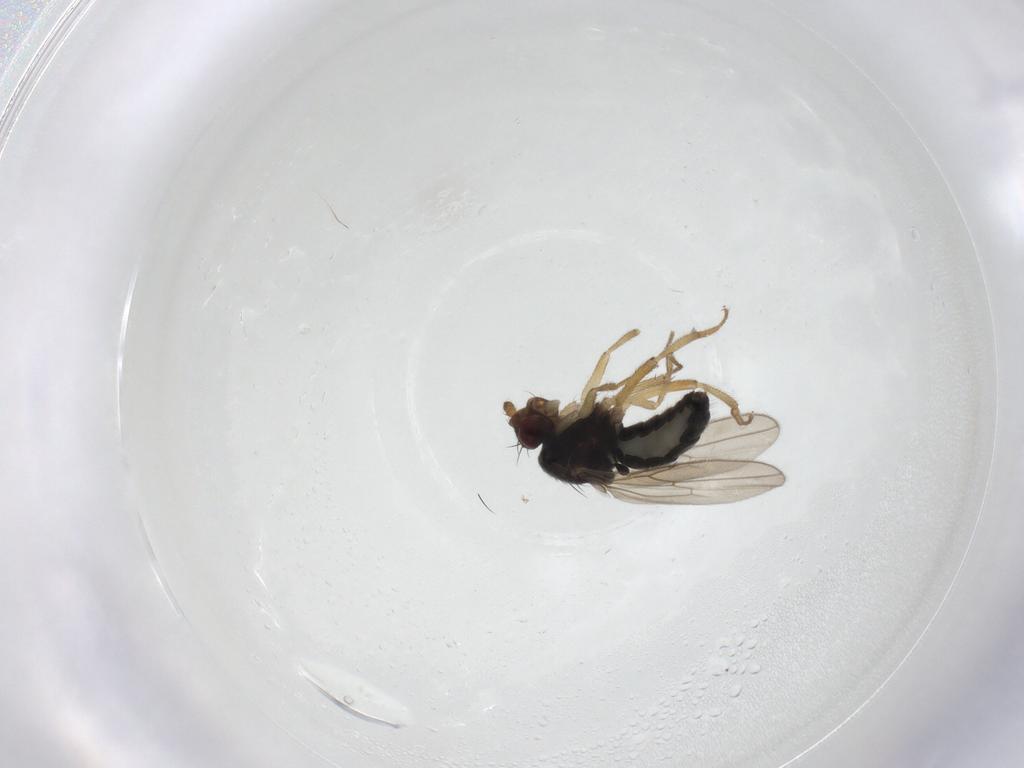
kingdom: Animalia
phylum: Arthropoda
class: Insecta
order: Diptera
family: Sphaeroceridae
